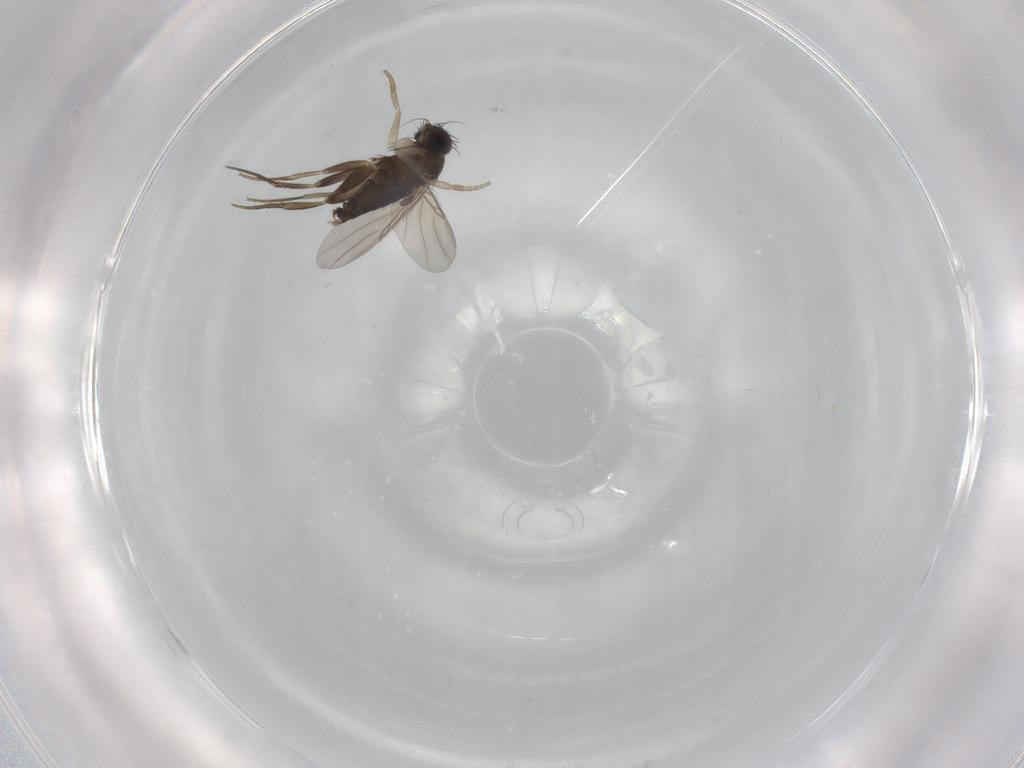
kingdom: Animalia
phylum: Arthropoda
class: Insecta
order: Diptera
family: Phoridae
